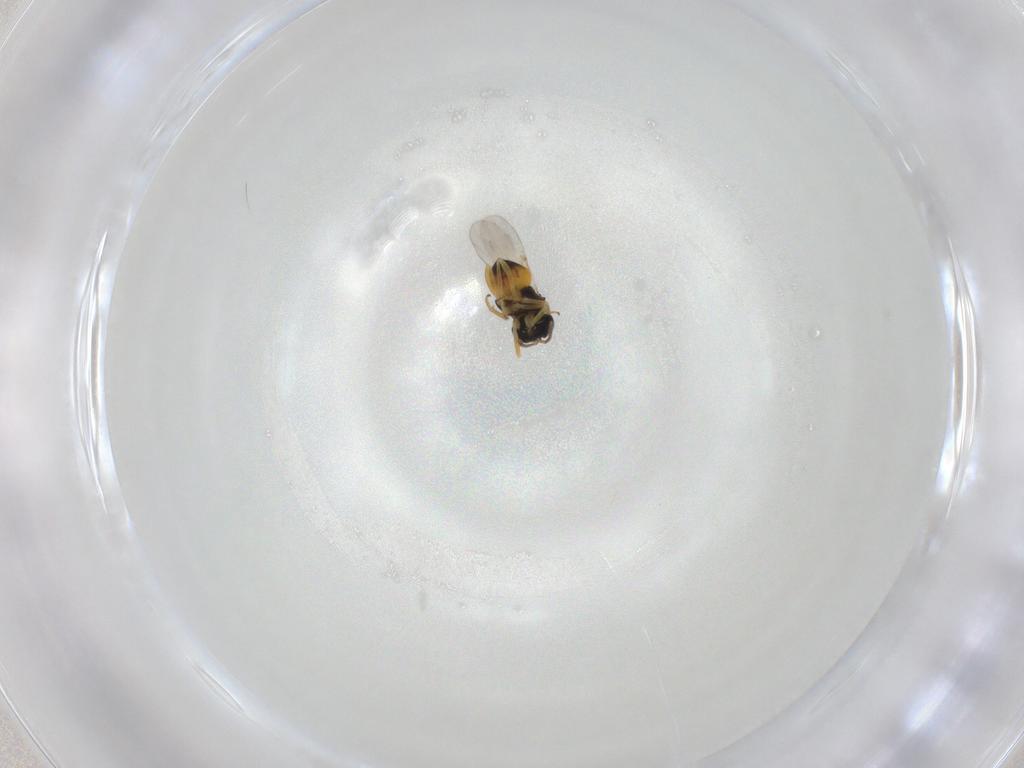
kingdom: Animalia
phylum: Arthropoda
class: Insecta
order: Hymenoptera
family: Encyrtidae
